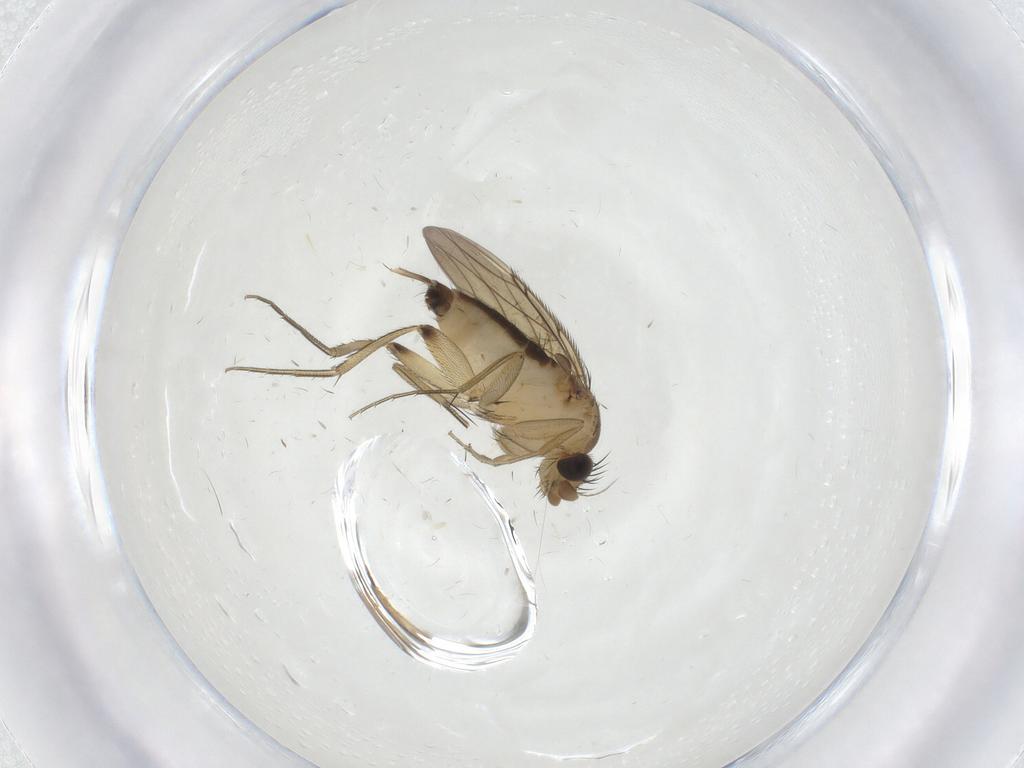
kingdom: Animalia
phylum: Arthropoda
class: Insecta
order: Diptera
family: Phoridae
